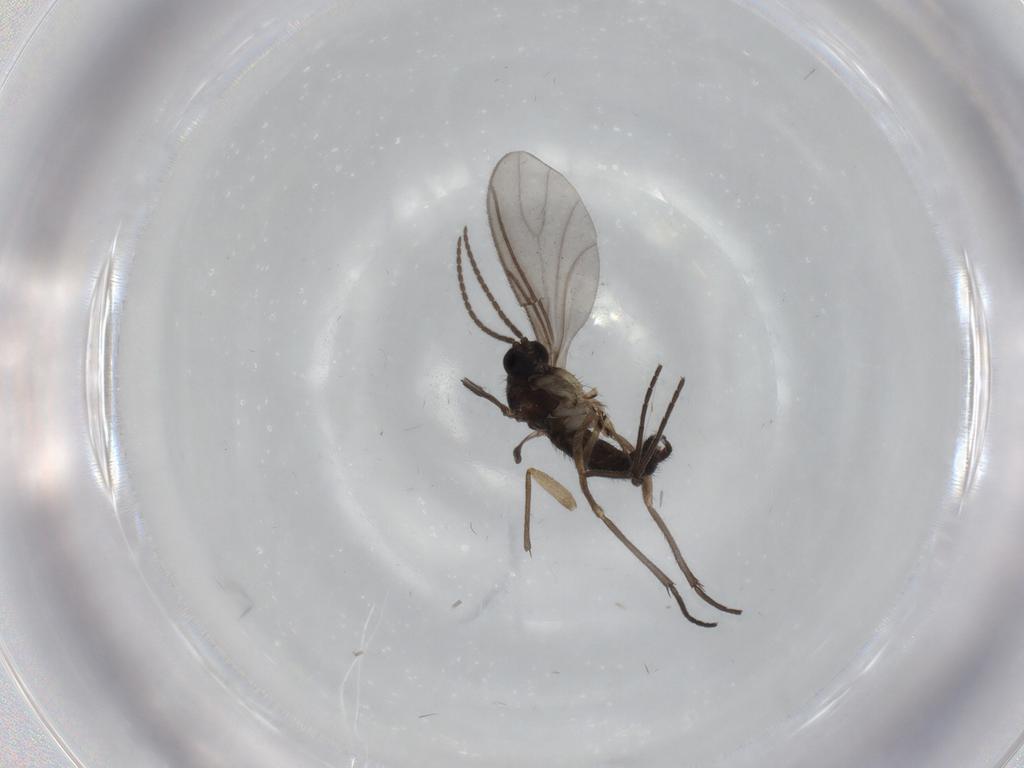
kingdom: Animalia
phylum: Arthropoda
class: Insecta
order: Diptera
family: Sciaridae
